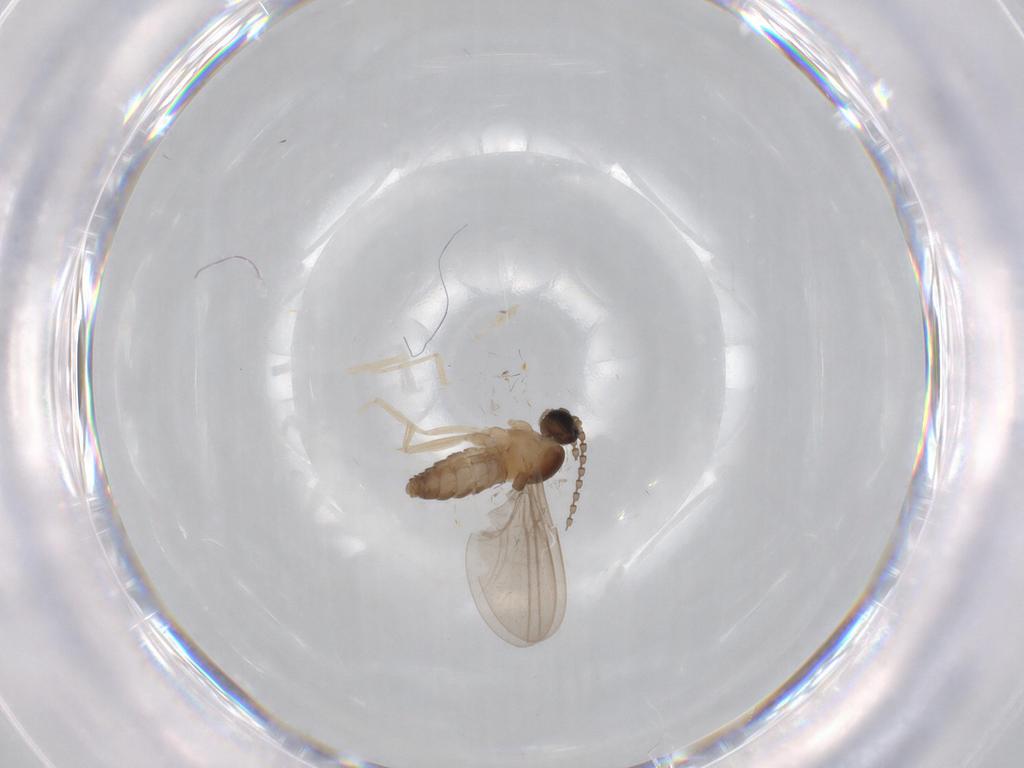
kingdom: Animalia
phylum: Arthropoda
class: Insecta
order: Diptera
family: Cecidomyiidae
